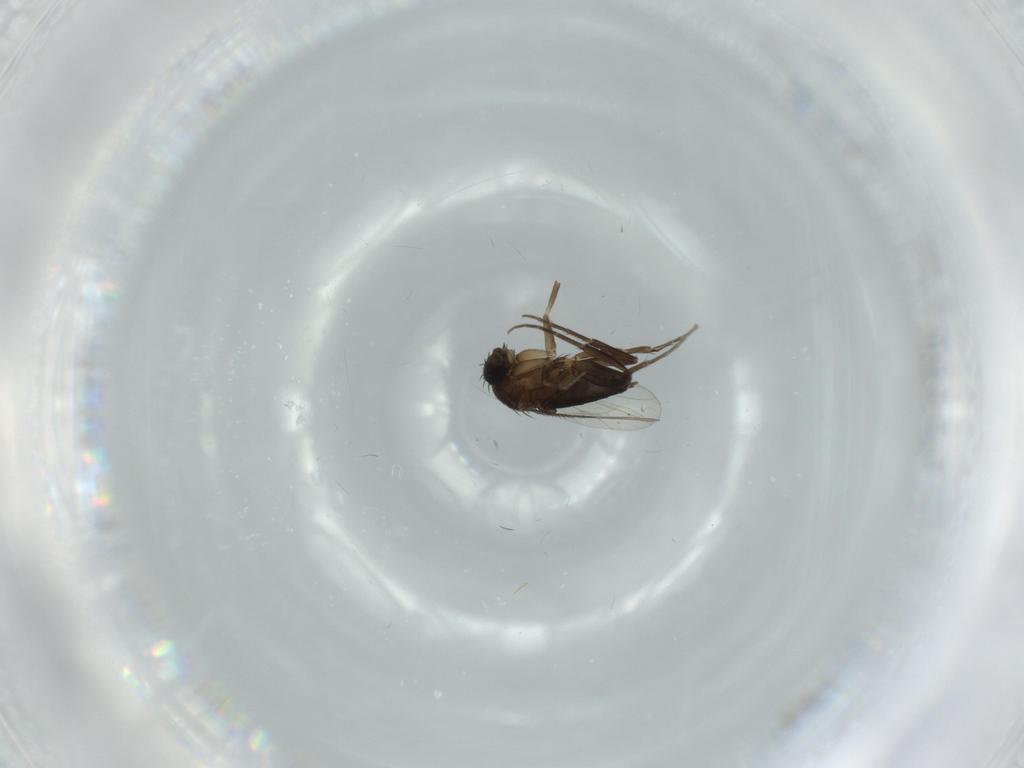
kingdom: Animalia
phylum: Arthropoda
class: Insecta
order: Diptera
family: Phoridae
